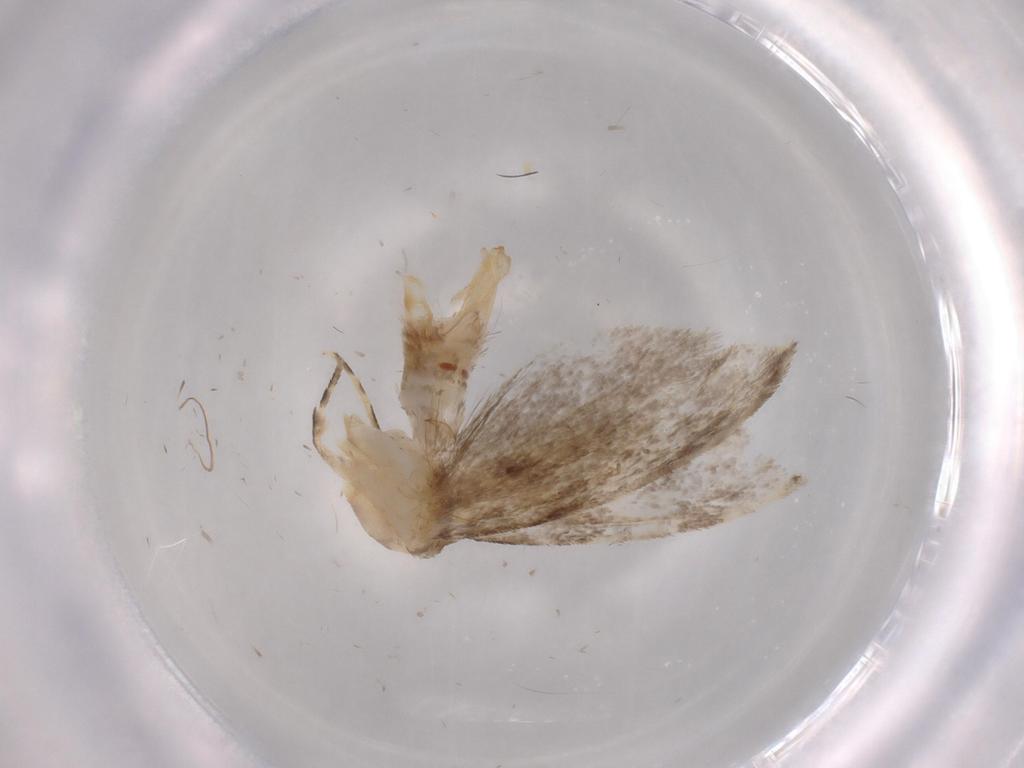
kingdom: Animalia
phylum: Arthropoda
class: Insecta
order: Lepidoptera
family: Tineidae
